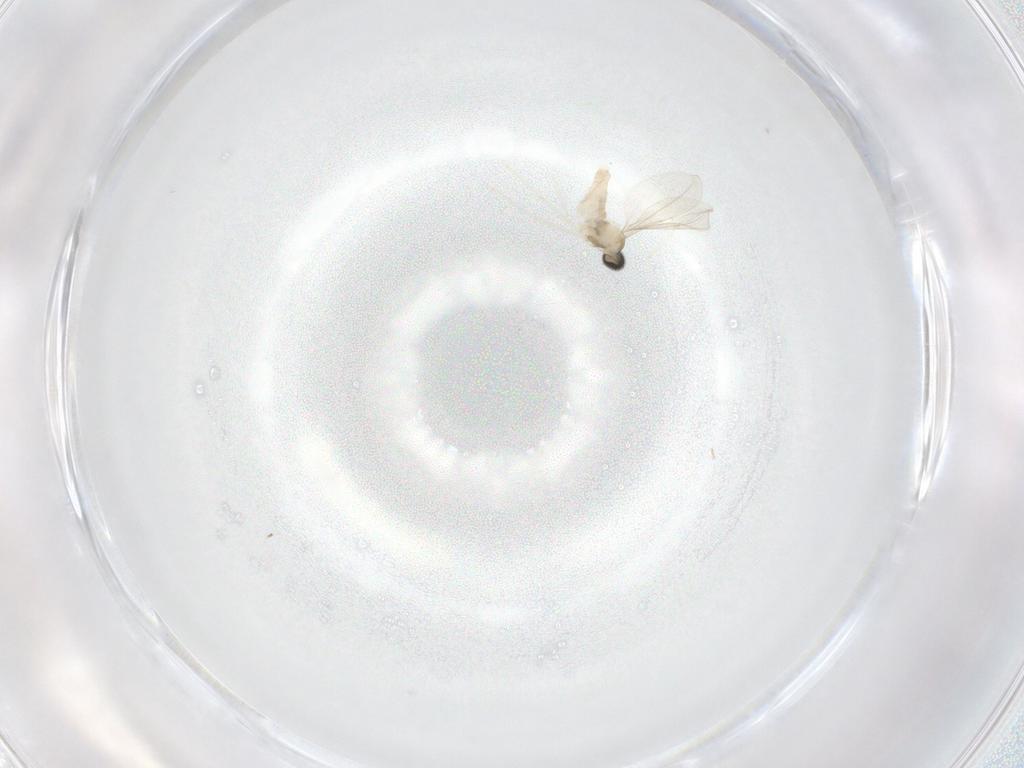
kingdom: Animalia
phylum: Arthropoda
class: Insecta
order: Diptera
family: Cecidomyiidae
